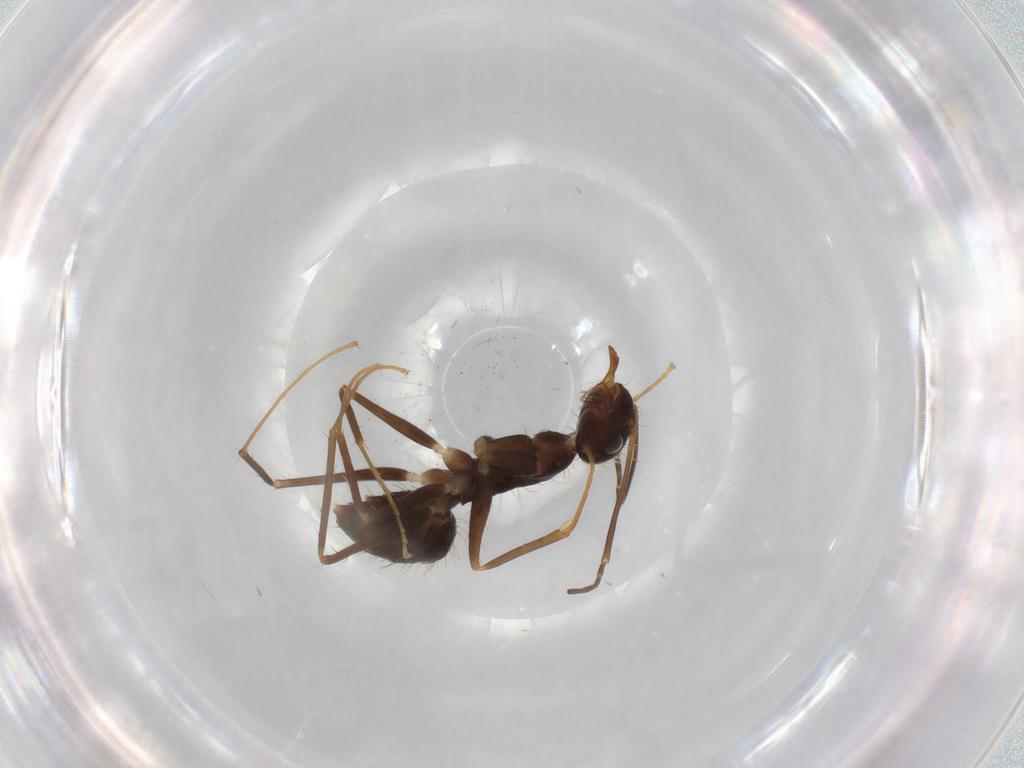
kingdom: Animalia
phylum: Arthropoda
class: Insecta
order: Hymenoptera
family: Formicidae
